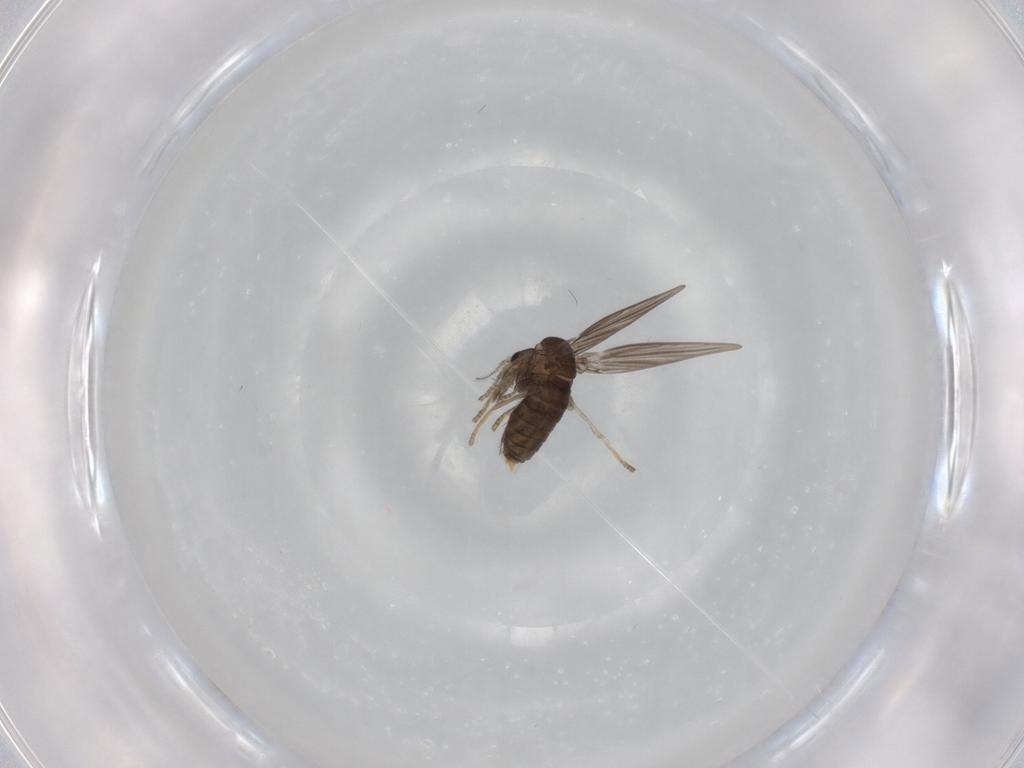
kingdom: Animalia
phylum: Arthropoda
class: Insecta
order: Diptera
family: Psychodidae
